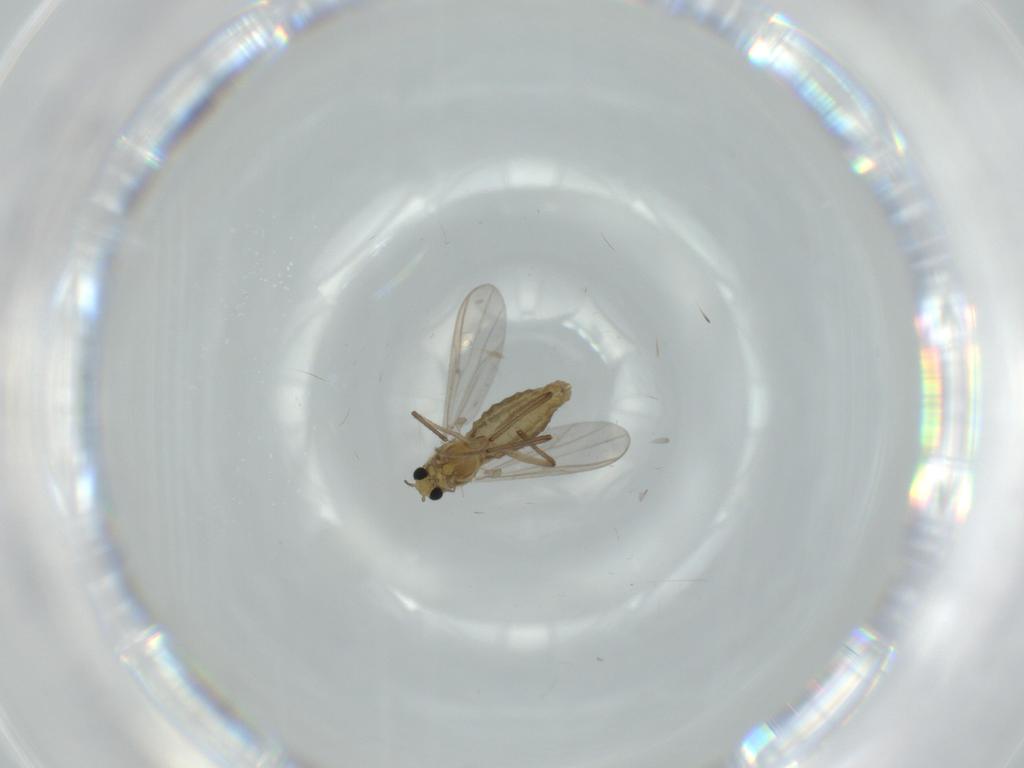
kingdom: Animalia
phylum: Arthropoda
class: Insecta
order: Diptera
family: Chironomidae
